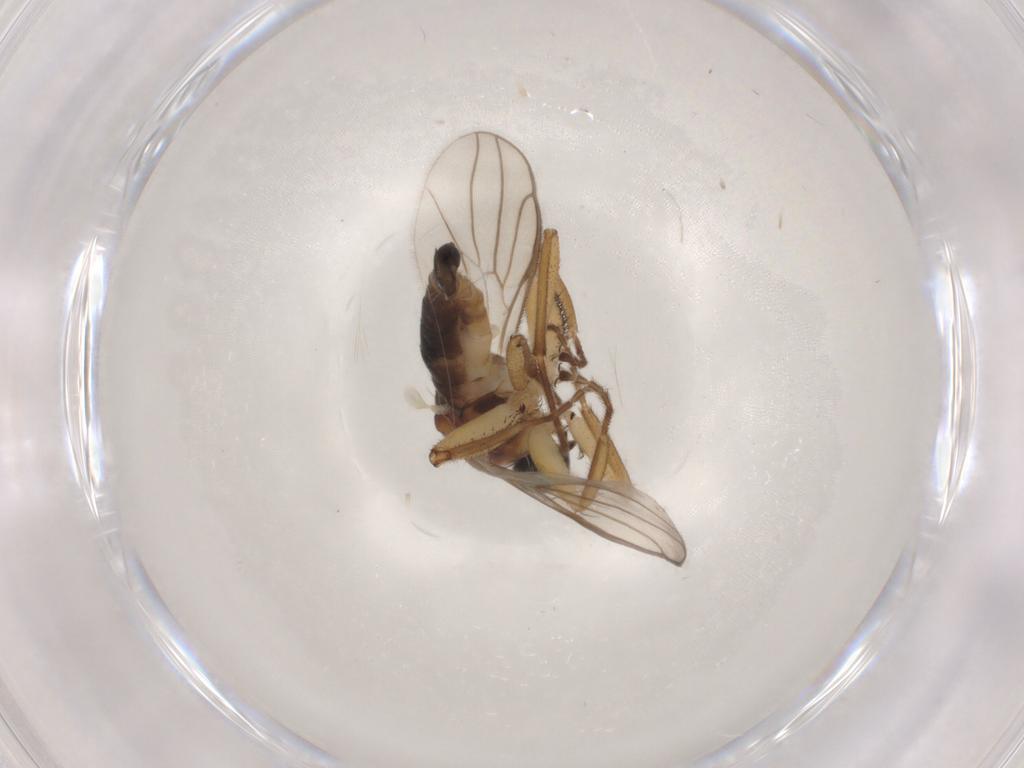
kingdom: Animalia
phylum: Arthropoda
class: Insecta
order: Diptera
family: Hybotidae
